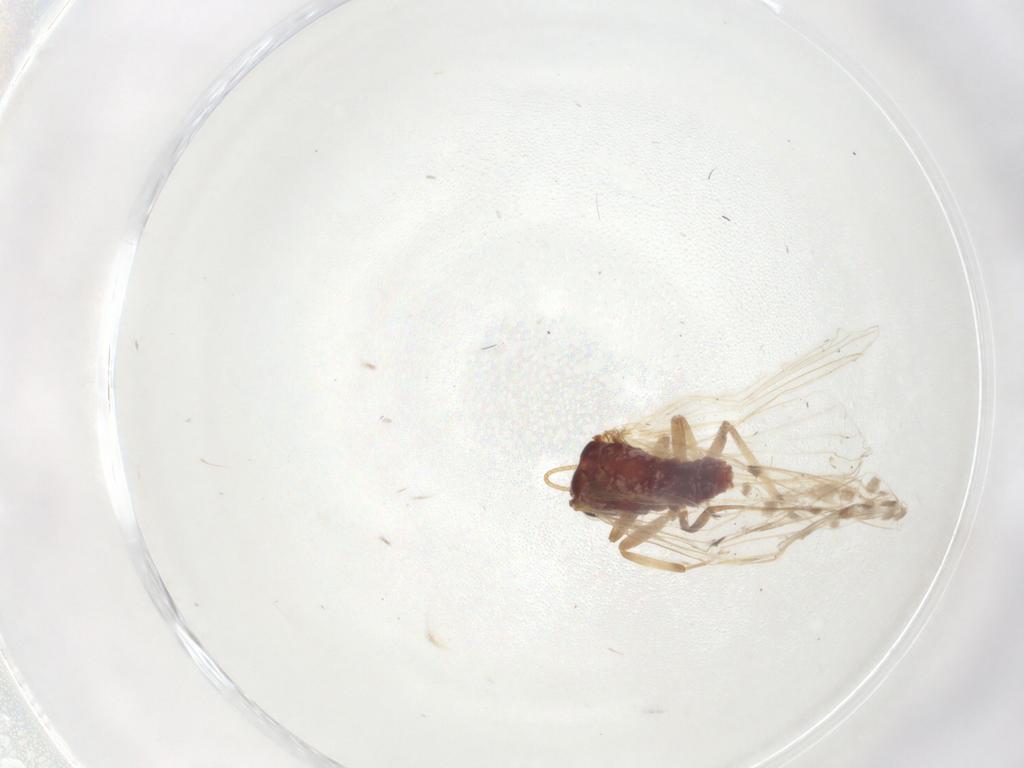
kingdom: Animalia
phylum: Arthropoda
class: Insecta
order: Neuroptera
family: Coniopterygidae
